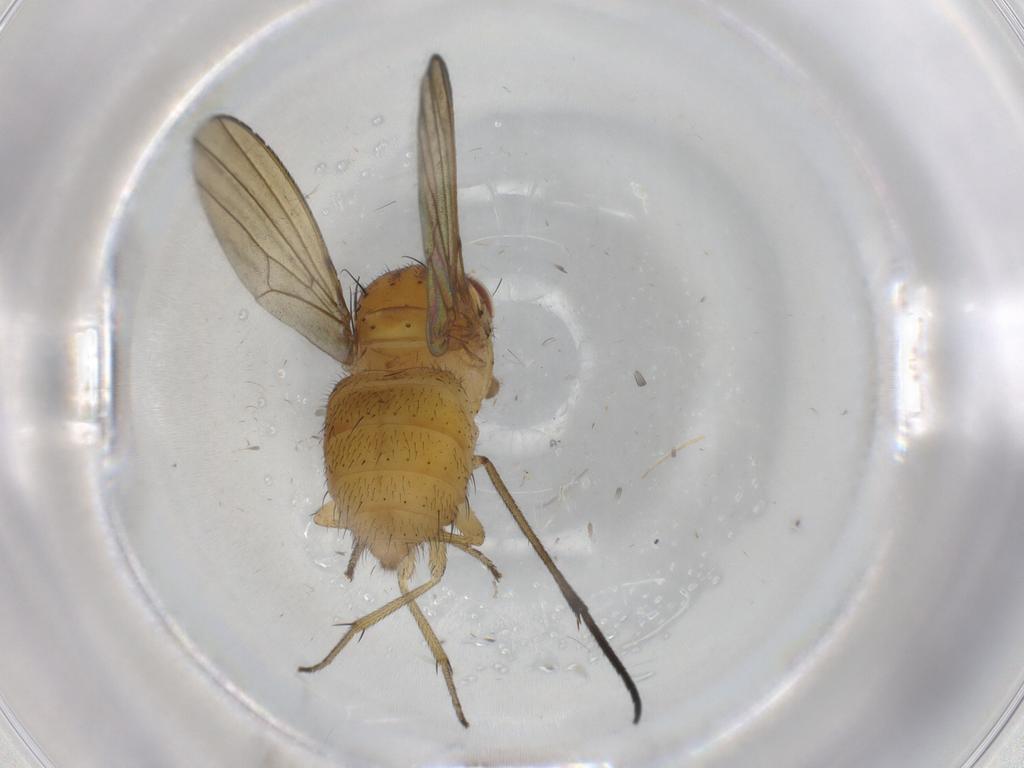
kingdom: Animalia
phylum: Arthropoda
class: Insecta
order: Diptera
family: Sciaridae
